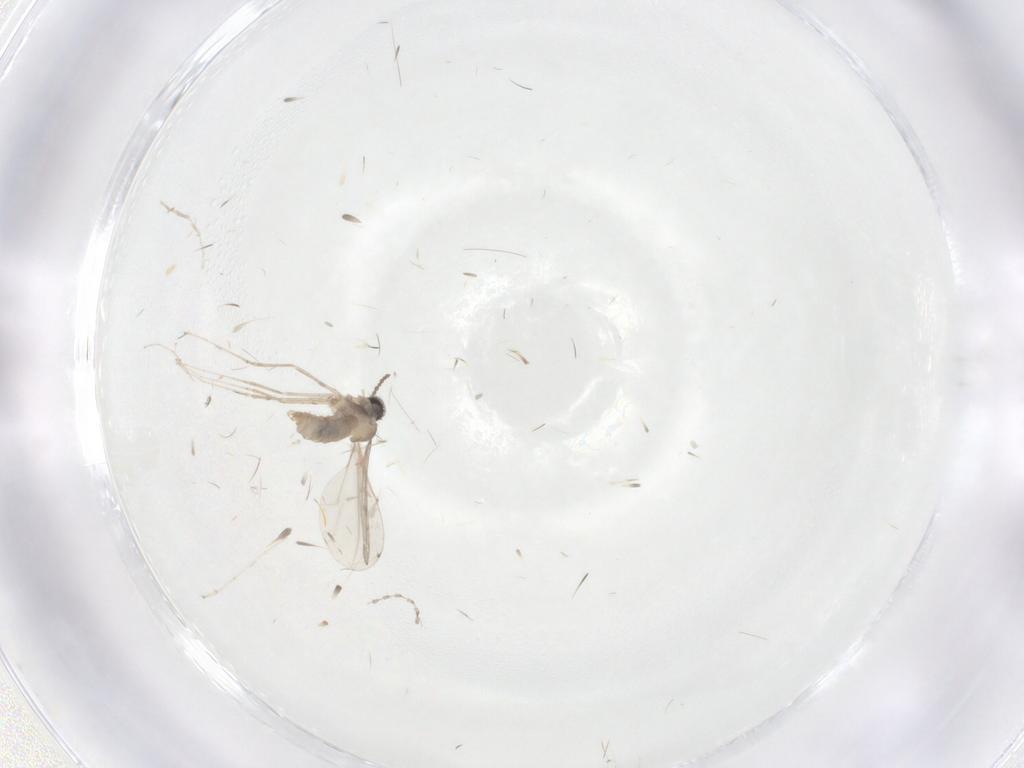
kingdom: Animalia
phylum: Arthropoda
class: Insecta
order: Diptera
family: Cecidomyiidae
